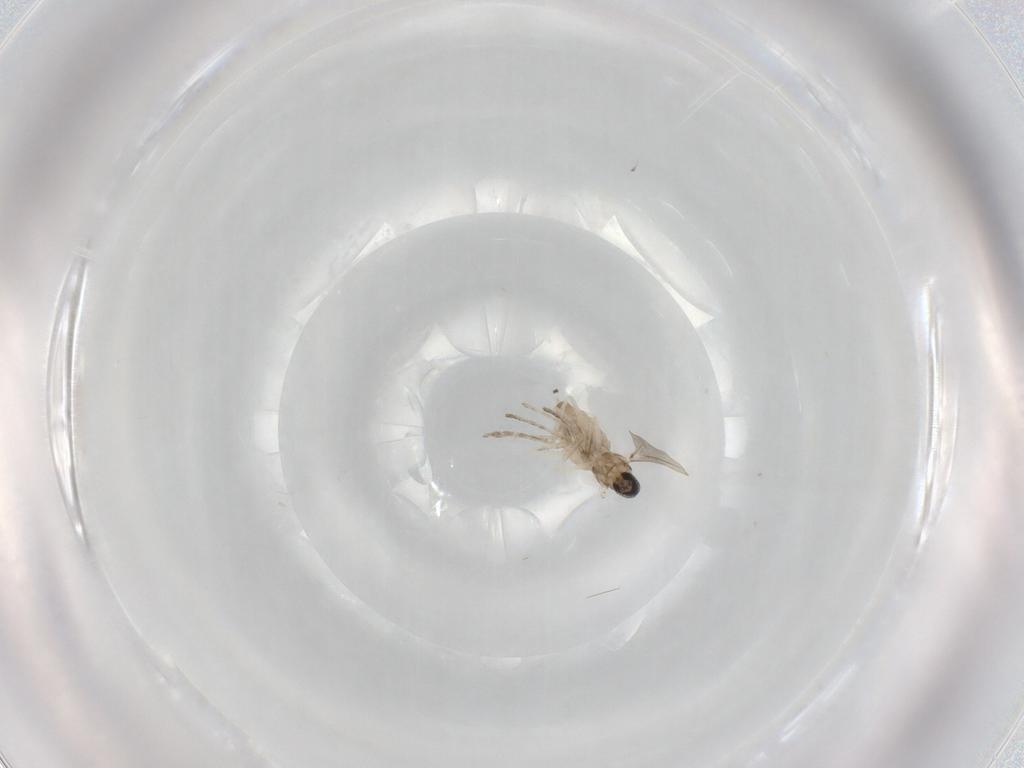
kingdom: Animalia
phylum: Arthropoda
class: Insecta
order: Diptera
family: Cecidomyiidae
